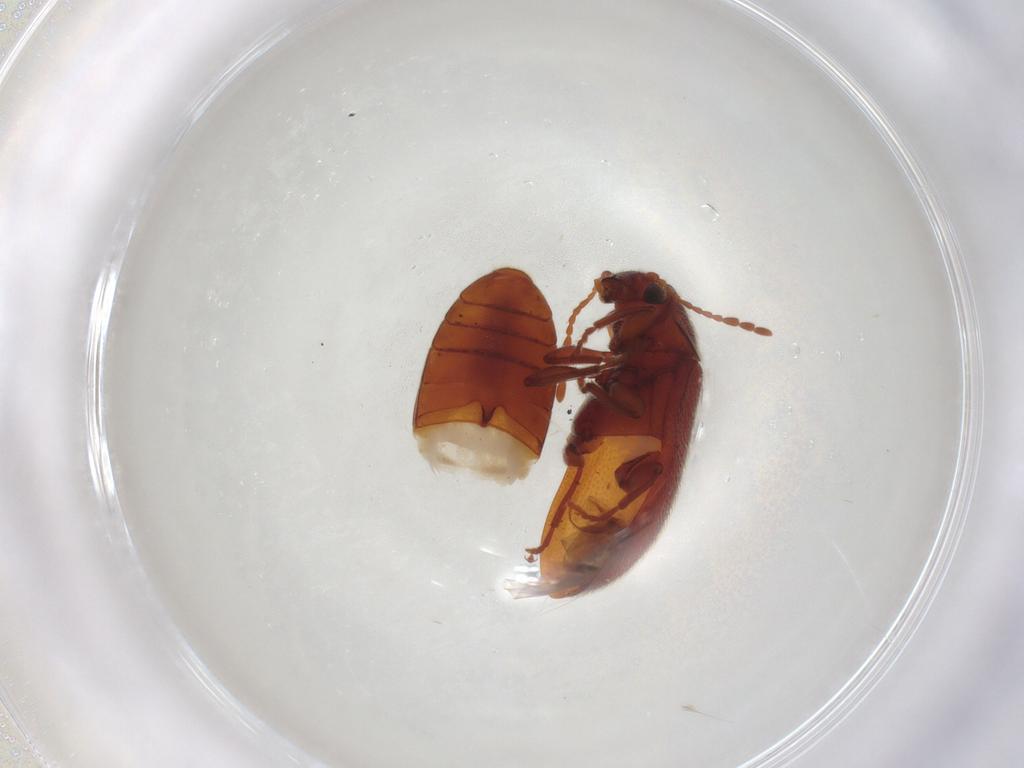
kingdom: Animalia
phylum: Arthropoda
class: Insecta
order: Coleoptera
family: Ptinidae
